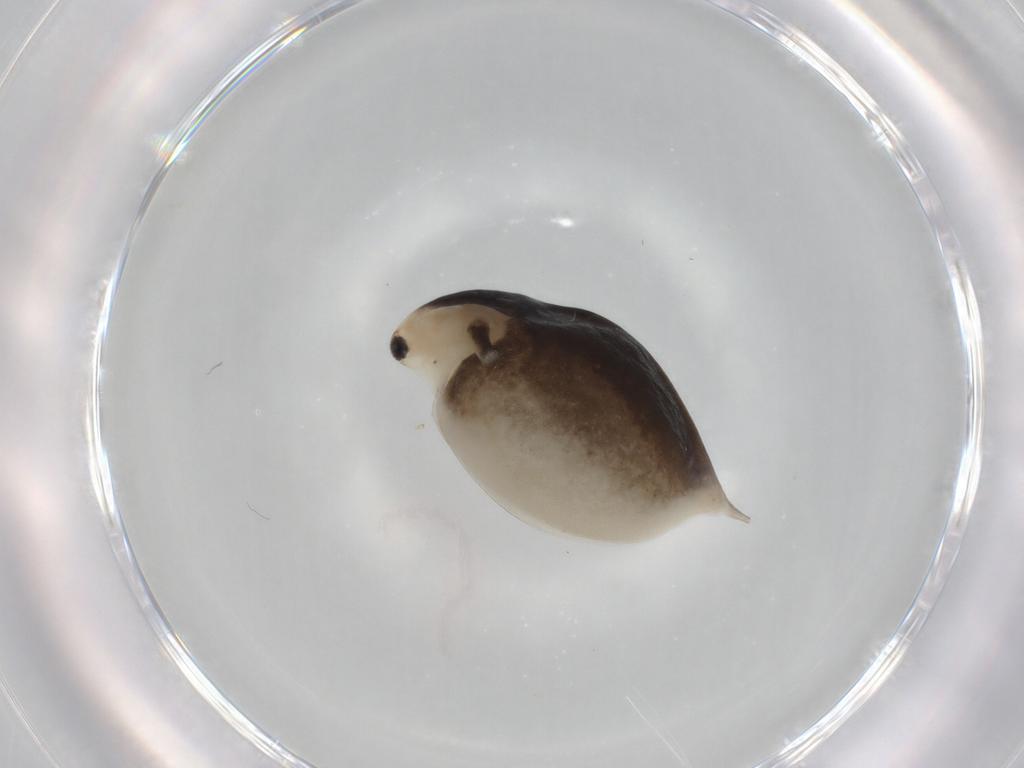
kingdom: Animalia
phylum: Arthropoda
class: Branchiopoda
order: Diplostraca
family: Daphniidae
